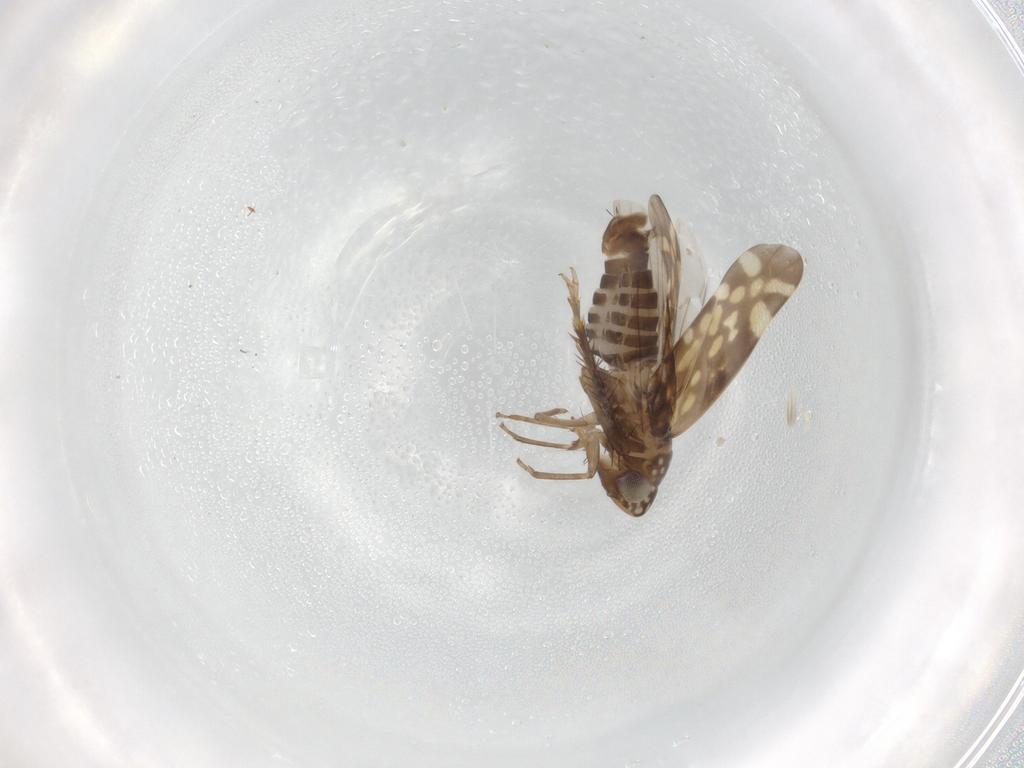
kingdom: Animalia
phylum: Arthropoda
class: Insecta
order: Hemiptera
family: Cicadellidae
